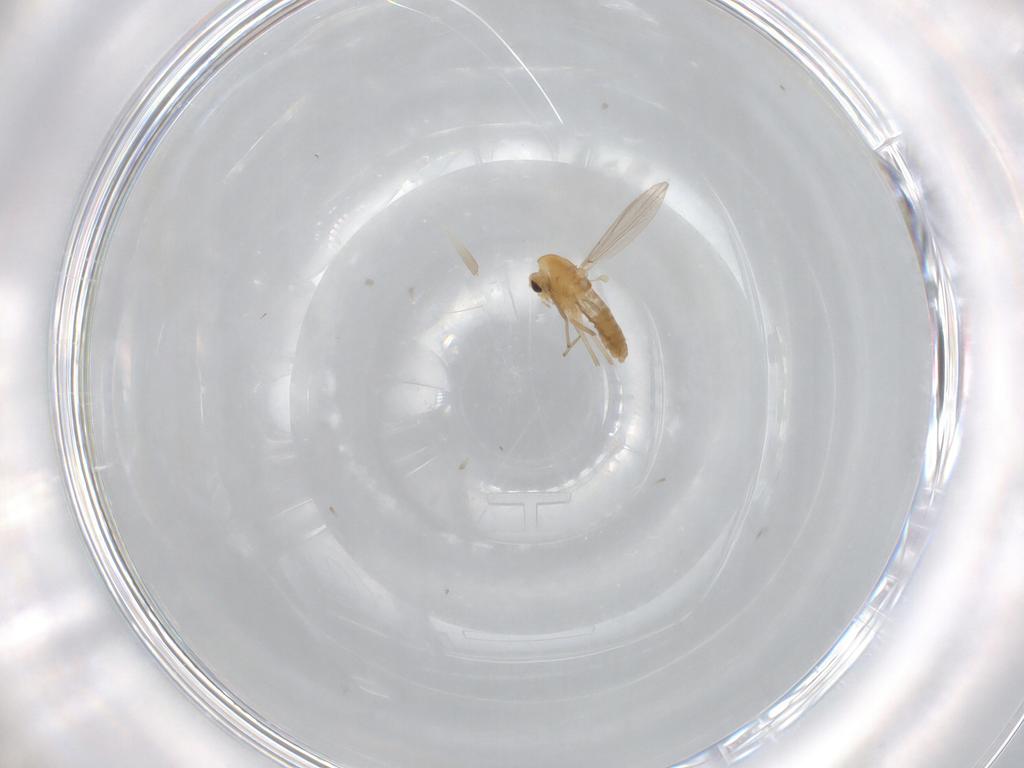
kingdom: Animalia
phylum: Arthropoda
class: Insecta
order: Diptera
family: Chironomidae
